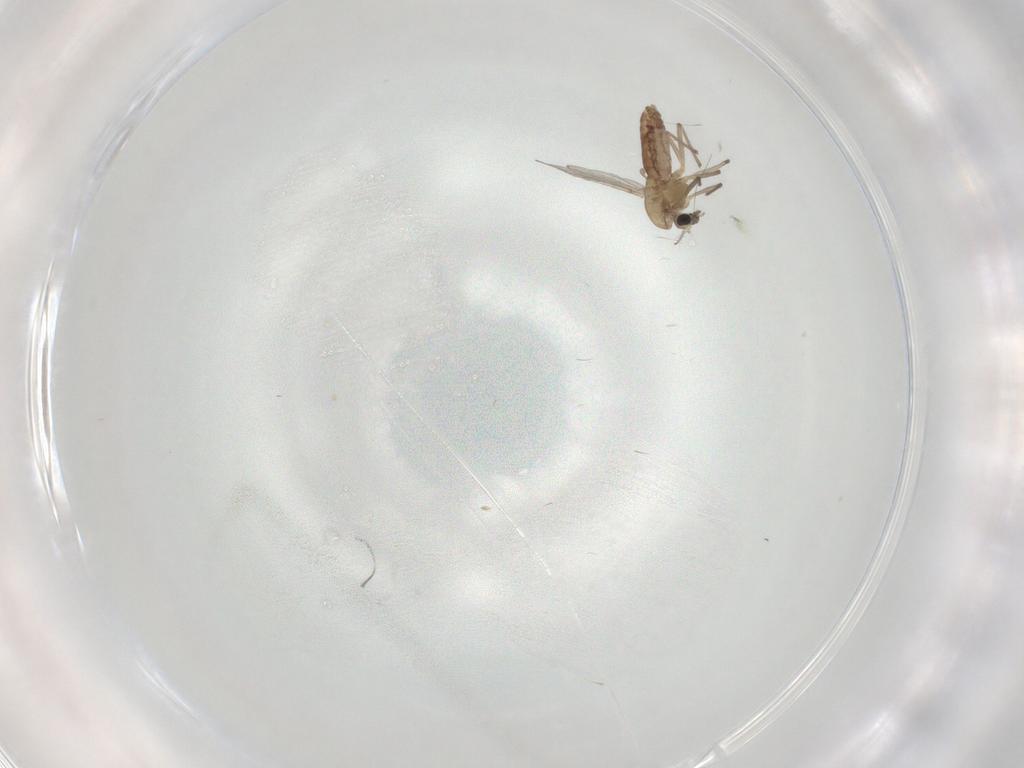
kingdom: Animalia
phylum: Arthropoda
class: Insecta
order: Diptera
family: Chironomidae
